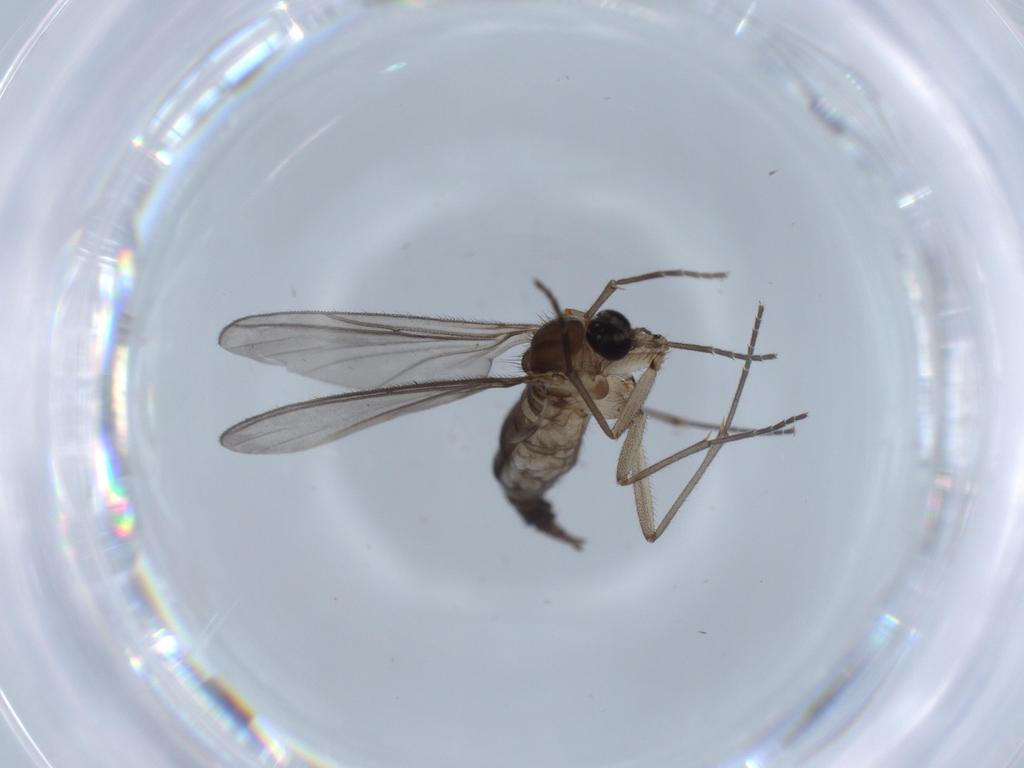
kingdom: Animalia
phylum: Arthropoda
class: Insecta
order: Diptera
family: Sciaridae
